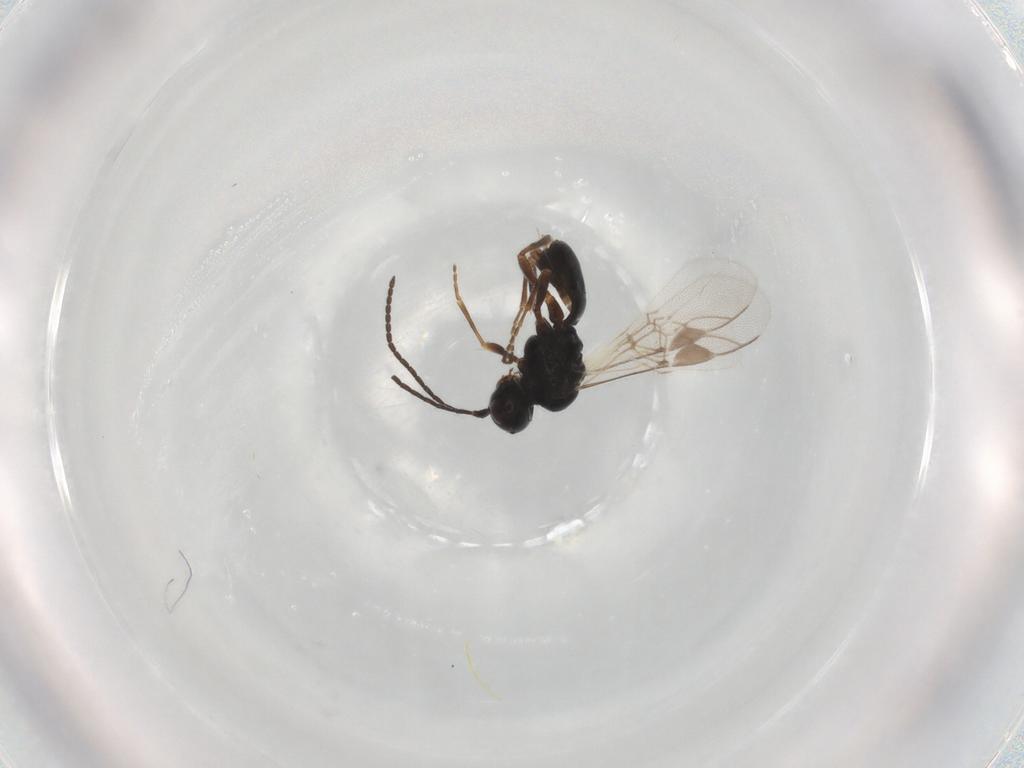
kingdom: Animalia
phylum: Arthropoda
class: Insecta
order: Hymenoptera
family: Braconidae
